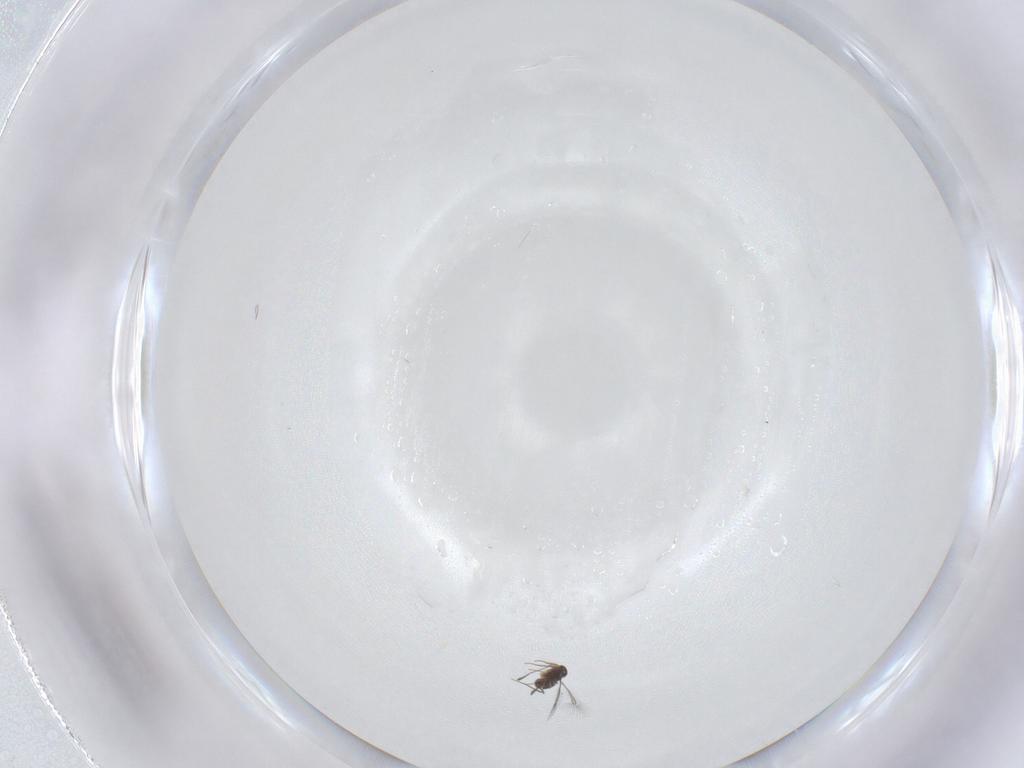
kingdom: Animalia
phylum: Arthropoda
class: Insecta
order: Hymenoptera
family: Mymaridae
